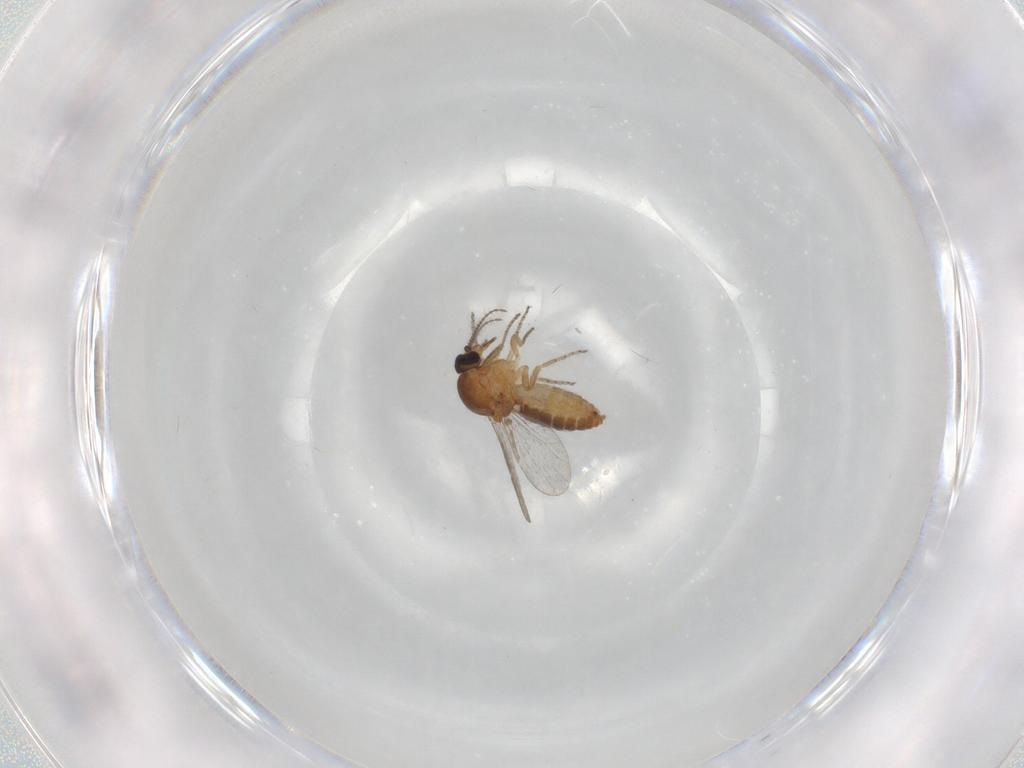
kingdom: Animalia
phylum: Arthropoda
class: Insecta
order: Diptera
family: Ceratopogonidae
